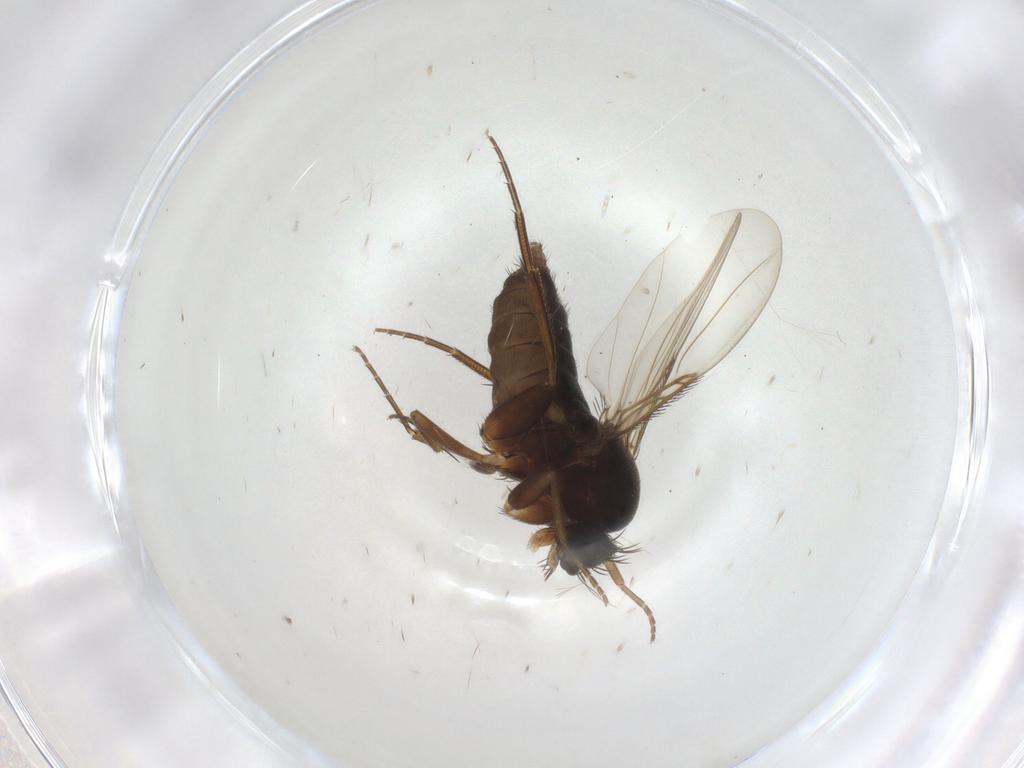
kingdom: Animalia
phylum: Arthropoda
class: Insecta
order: Diptera
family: Phoridae
